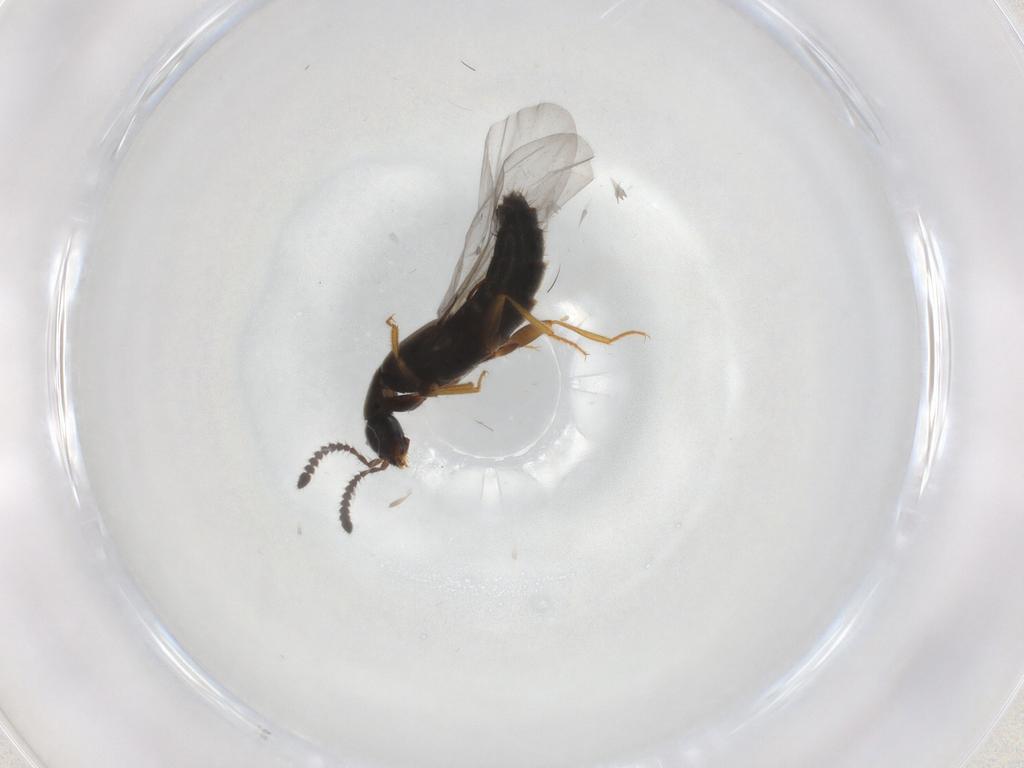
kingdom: Animalia
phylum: Arthropoda
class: Insecta
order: Coleoptera
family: Staphylinidae
